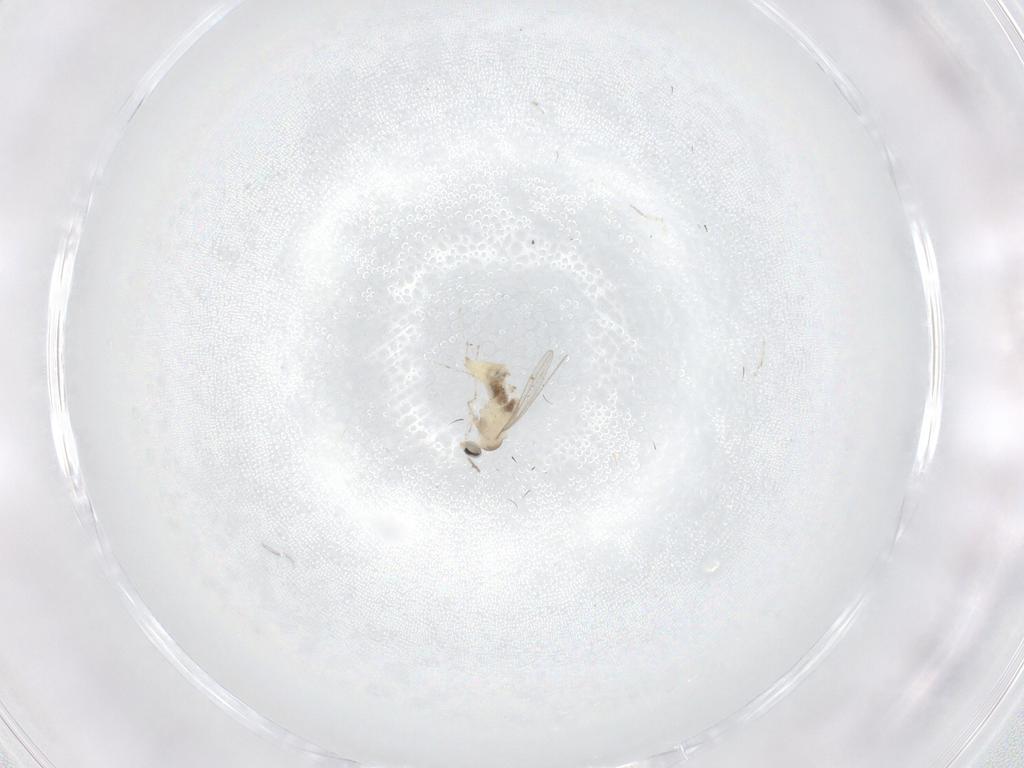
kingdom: Animalia
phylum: Arthropoda
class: Insecta
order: Diptera
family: Cecidomyiidae
